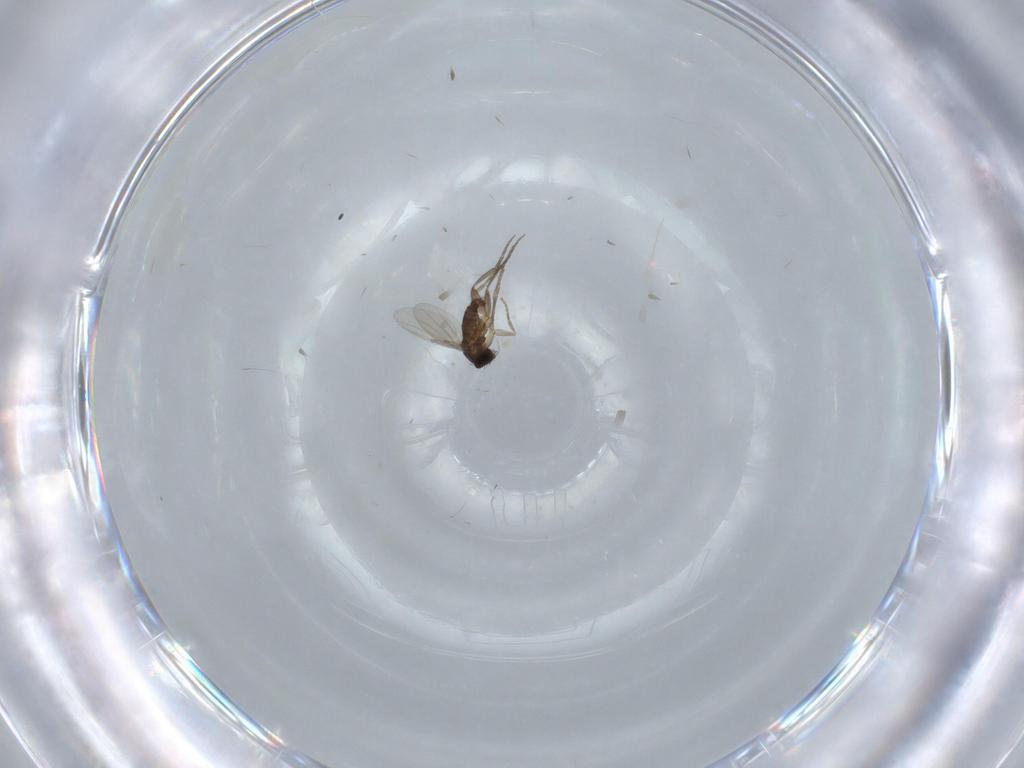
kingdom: Animalia
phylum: Arthropoda
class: Insecta
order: Diptera
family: Phoridae
